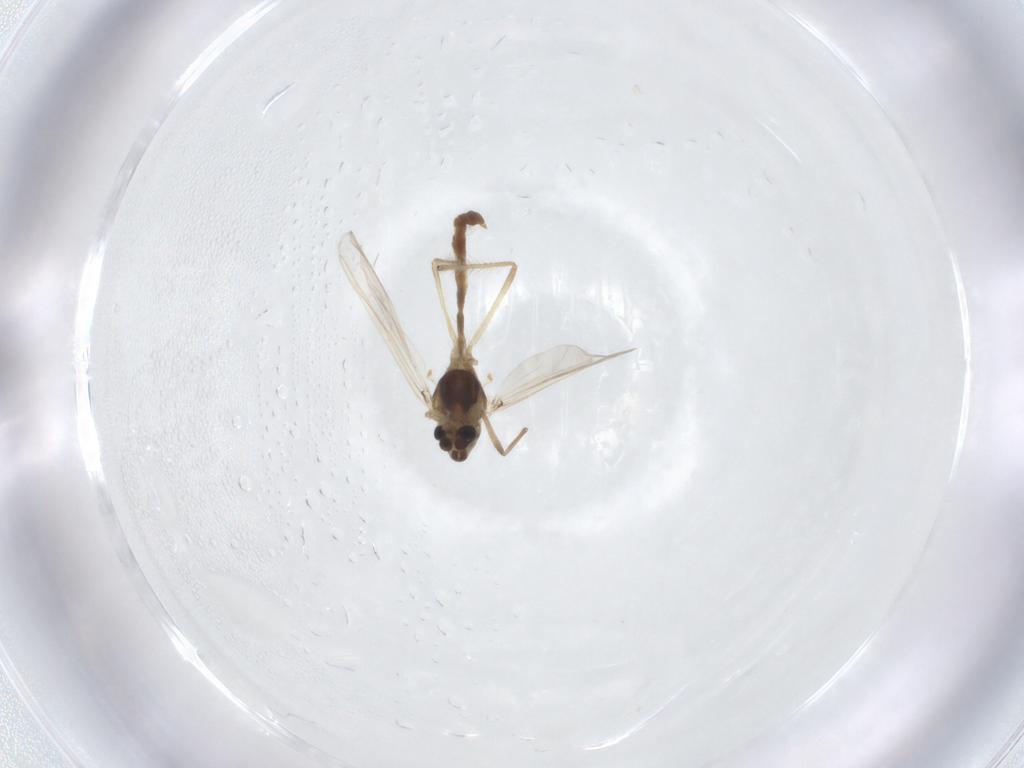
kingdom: Animalia
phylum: Arthropoda
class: Insecta
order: Diptera
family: Chironomidae
